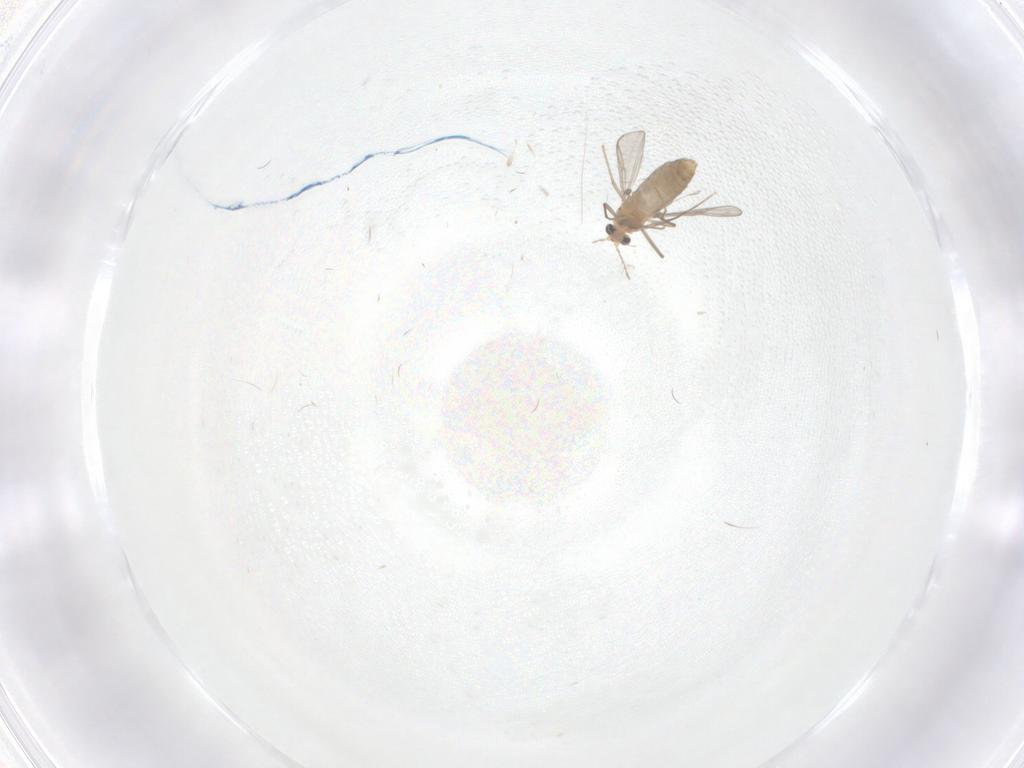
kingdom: Animalia
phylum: Arthropoda
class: Insecta
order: Diptera
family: Chironomidae
